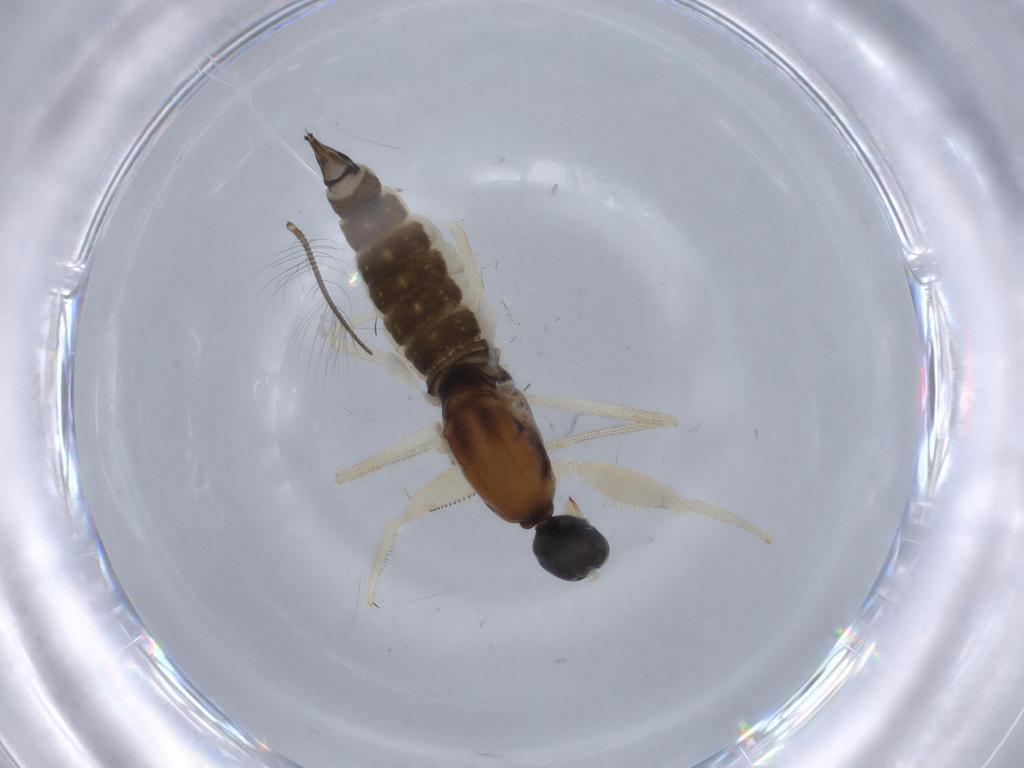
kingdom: Animalia
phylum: Arthropoda
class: Insecta
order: Diptera
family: Empididae
